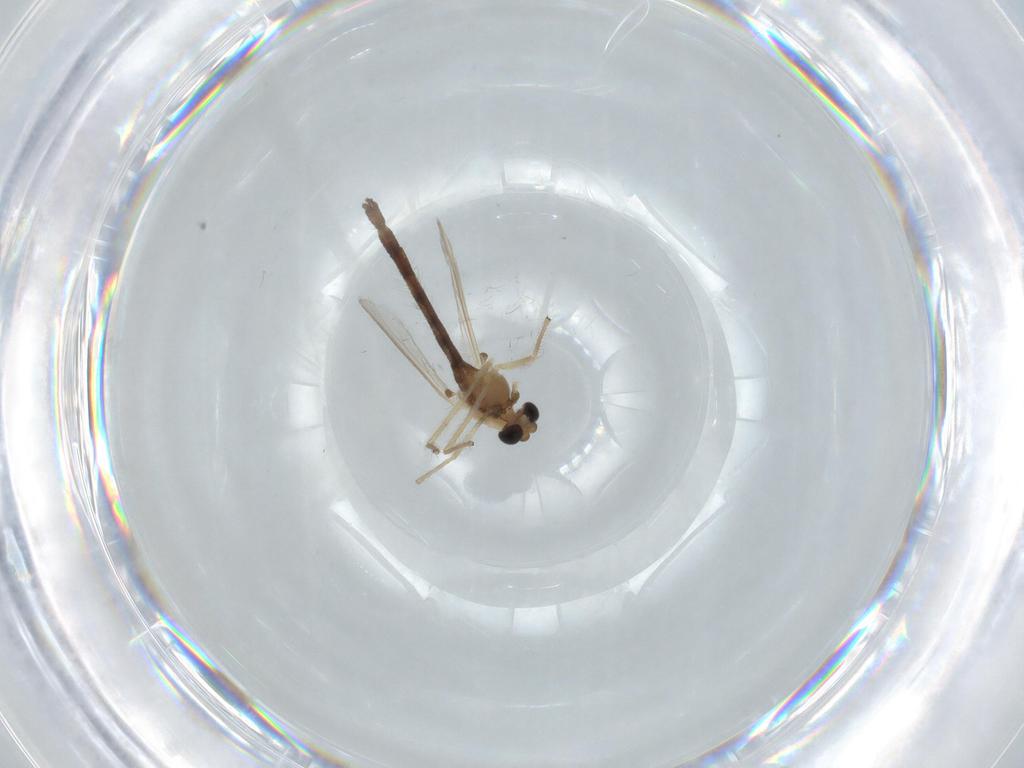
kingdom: Animalia
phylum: Arthropoda
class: Insecta
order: Diptera
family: Chironomidae
